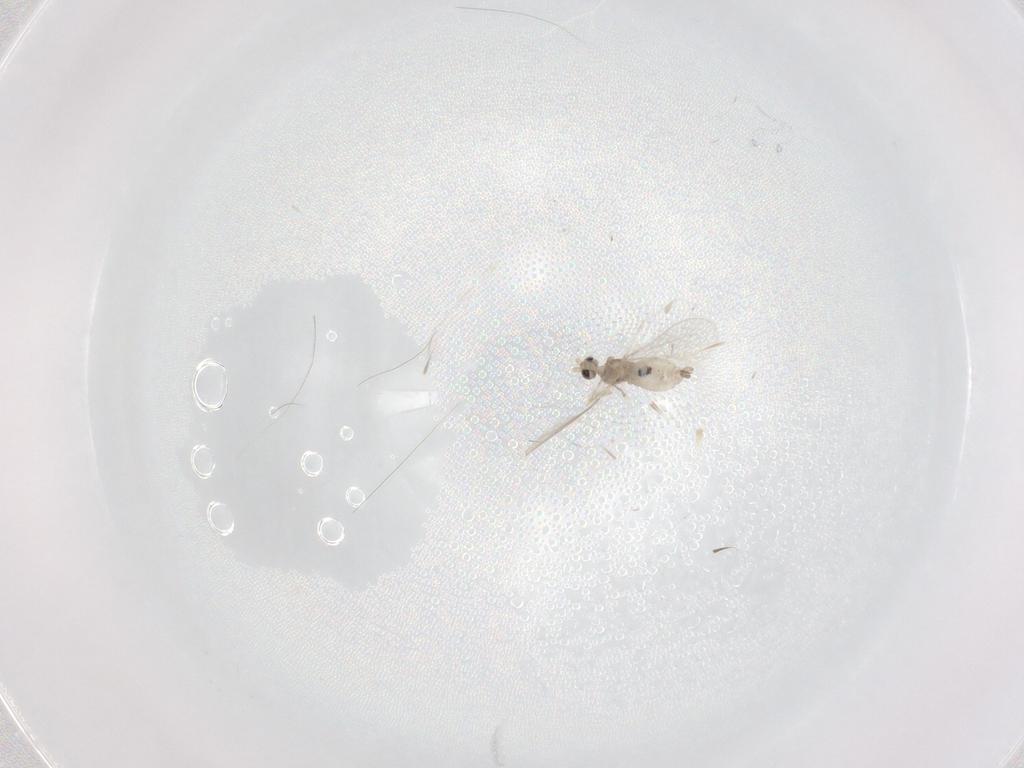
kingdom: Animalia
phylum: Arthropoda
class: Insecta
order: Diptera
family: Cecidomyiidae
